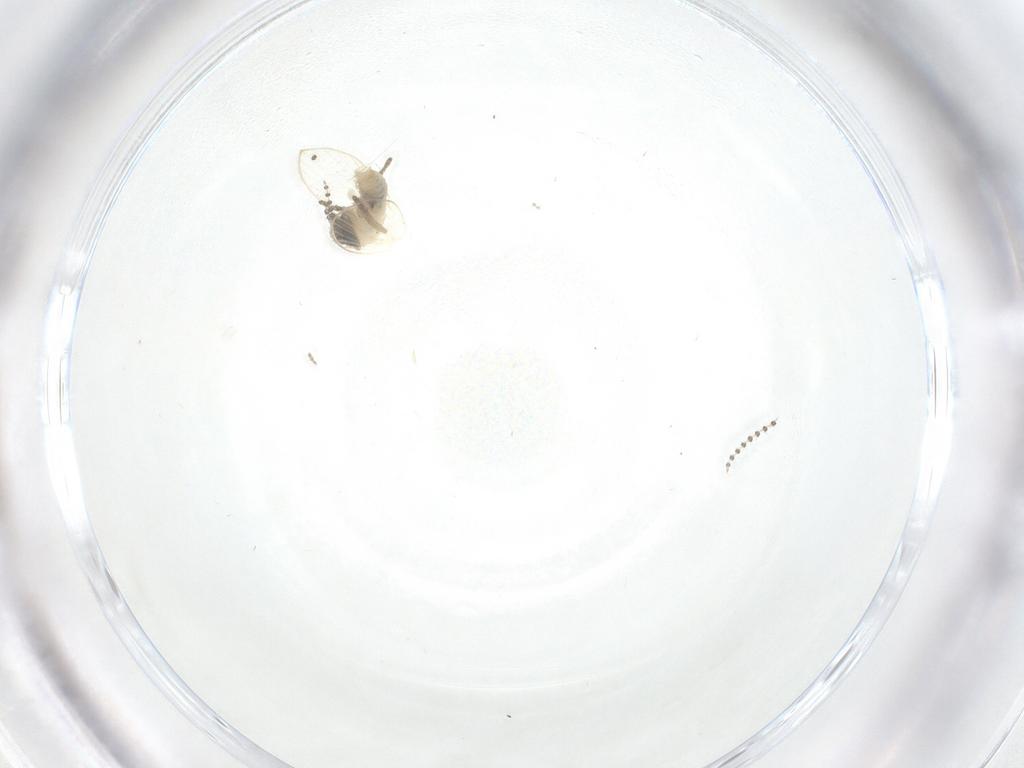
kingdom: Animalia
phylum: Arthropoda
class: Insecta
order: Diptera
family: Psychodidae
